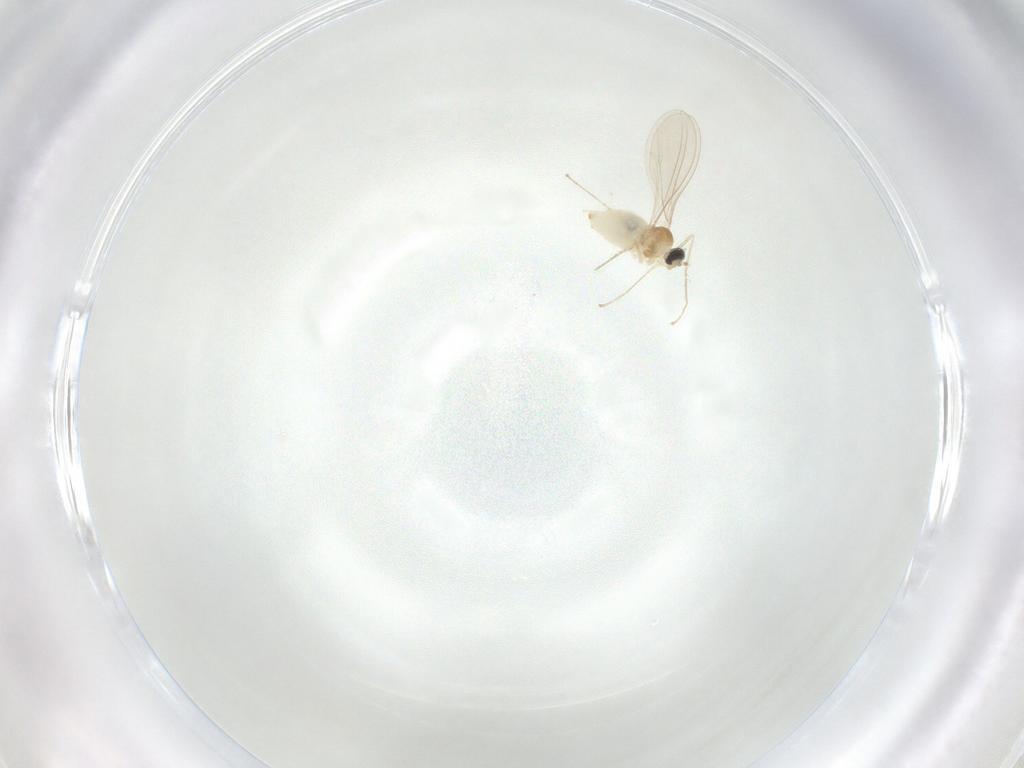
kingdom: Animalia
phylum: Arthropoda
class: Insecta
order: Diptera
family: Cecidomyiidae
